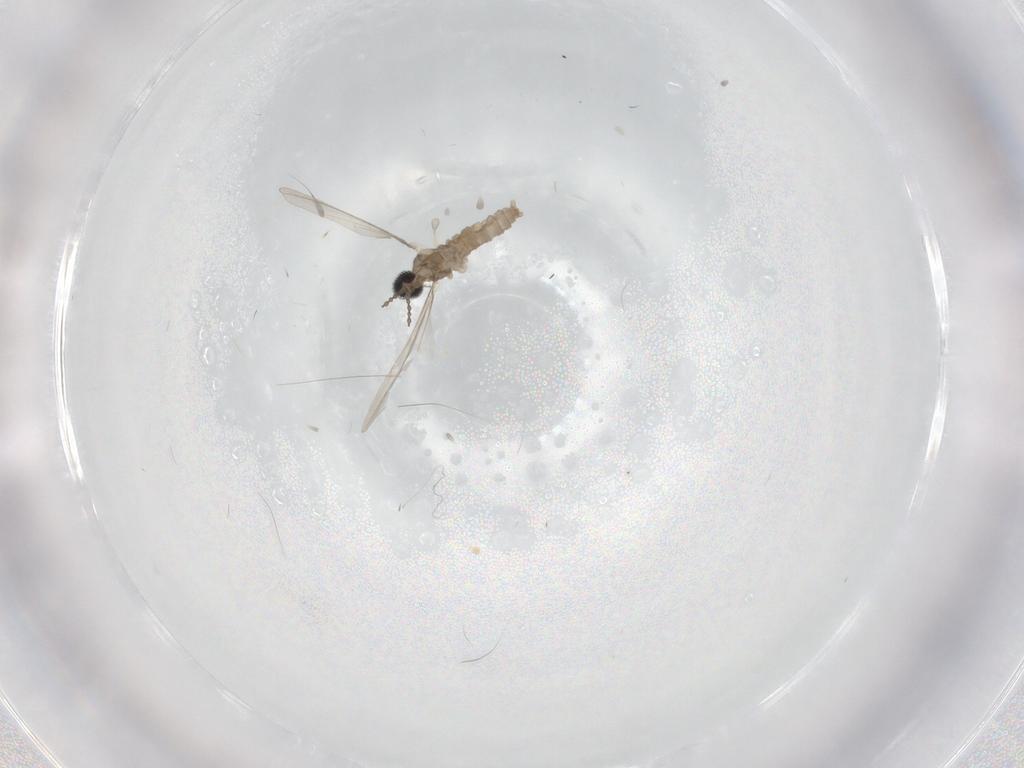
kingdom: Animalia
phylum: Arthropoda
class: Insecta
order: Diptera
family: Cecidomyiidae
